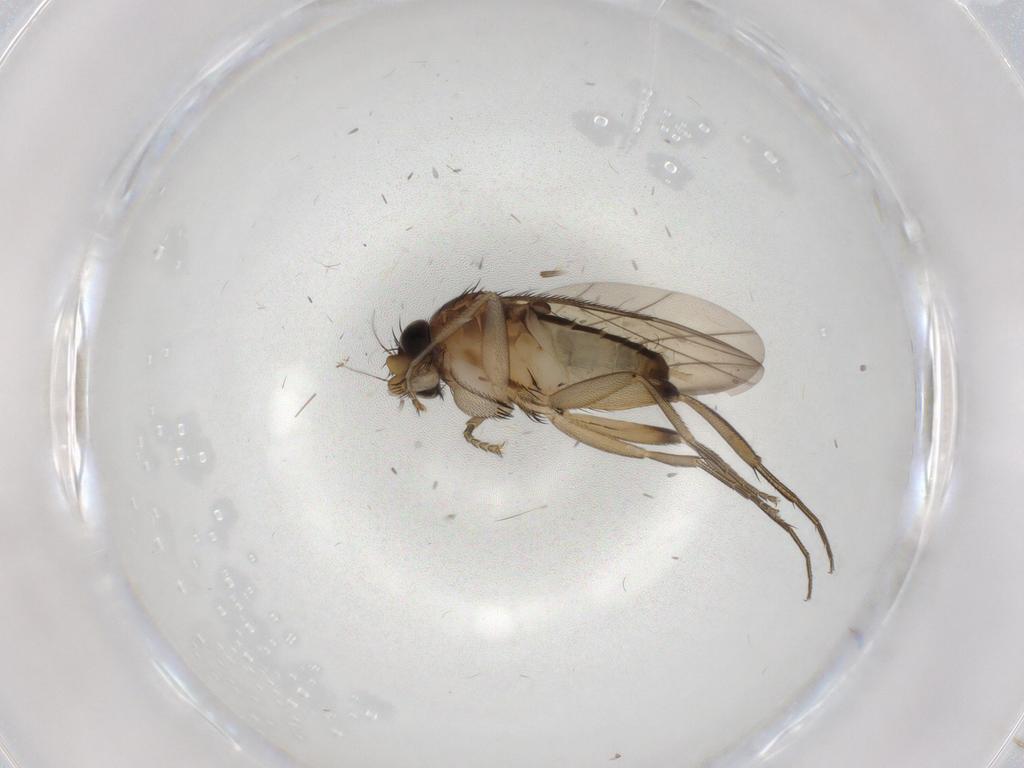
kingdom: Animalia
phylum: Arthropoda
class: Insecta
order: Diptera
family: Phoridae
